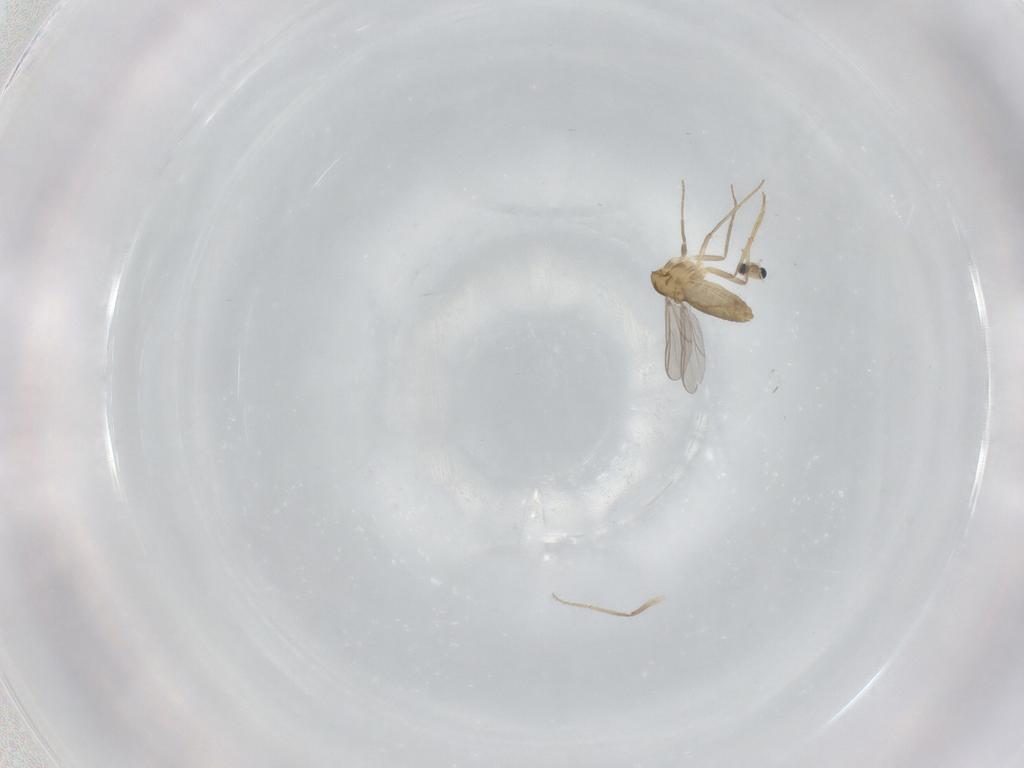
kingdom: Animalia
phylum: Arthropoda
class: Insecta
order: Diptera
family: Chironomidae
